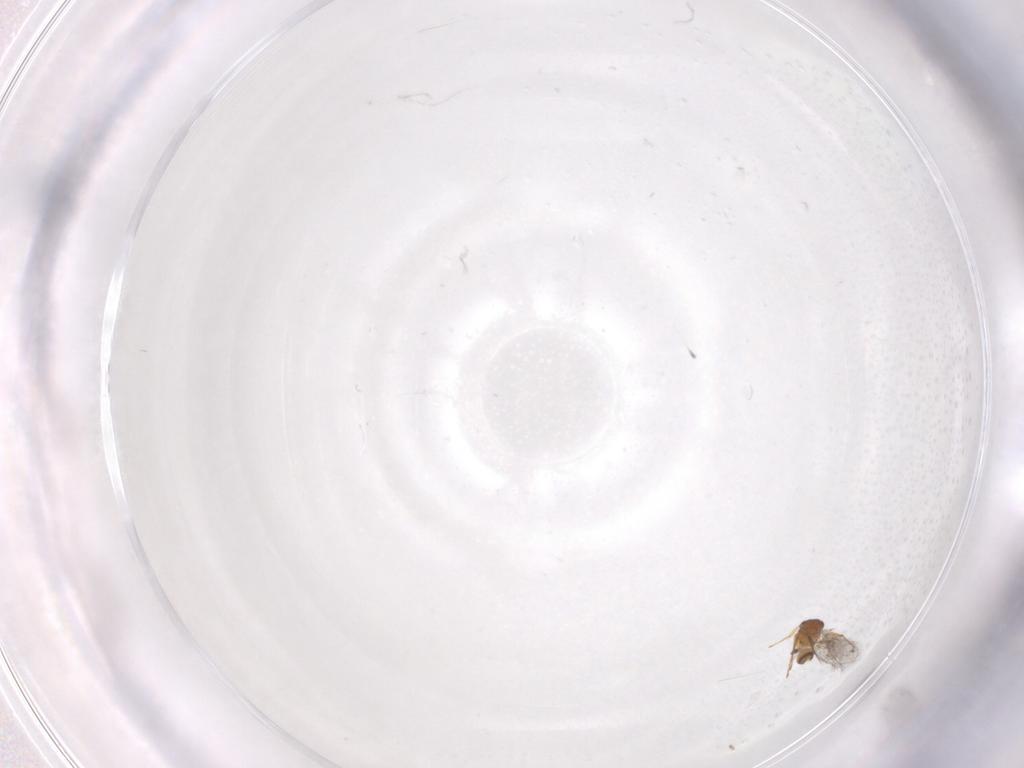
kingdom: Animalia
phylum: Arthropoda
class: Insecta
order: Hymenoptera
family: Mymaridae
